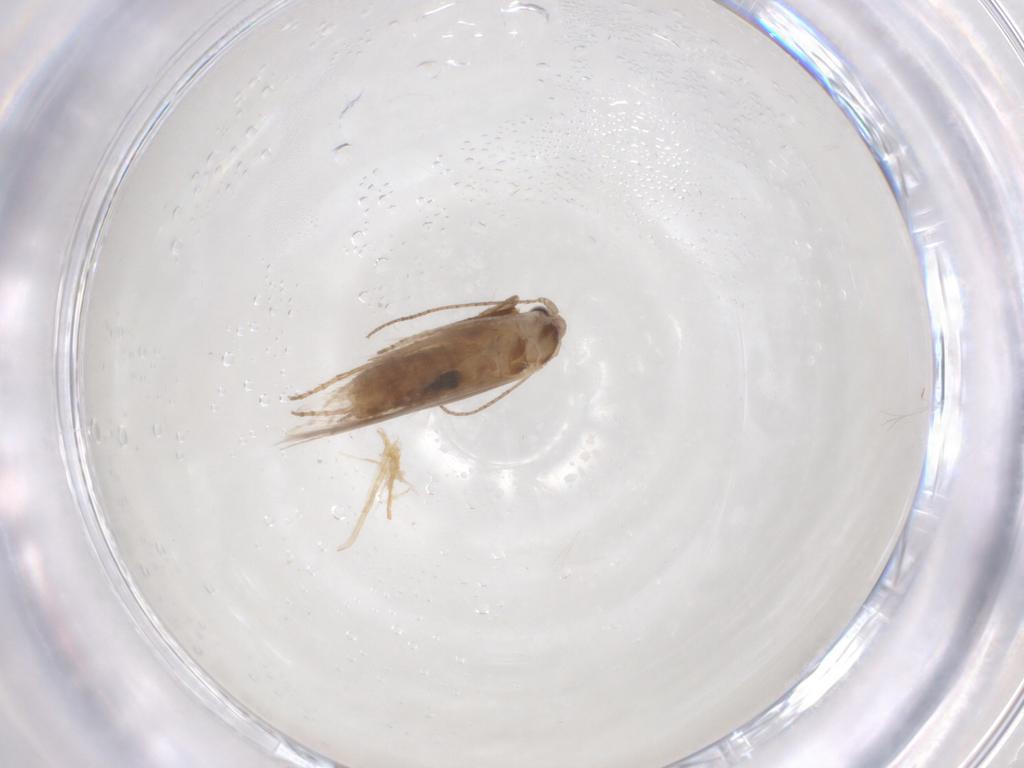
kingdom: Animalia
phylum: Arthropoda
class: Insecta
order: Lepidoptera
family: Bucculatricidae
